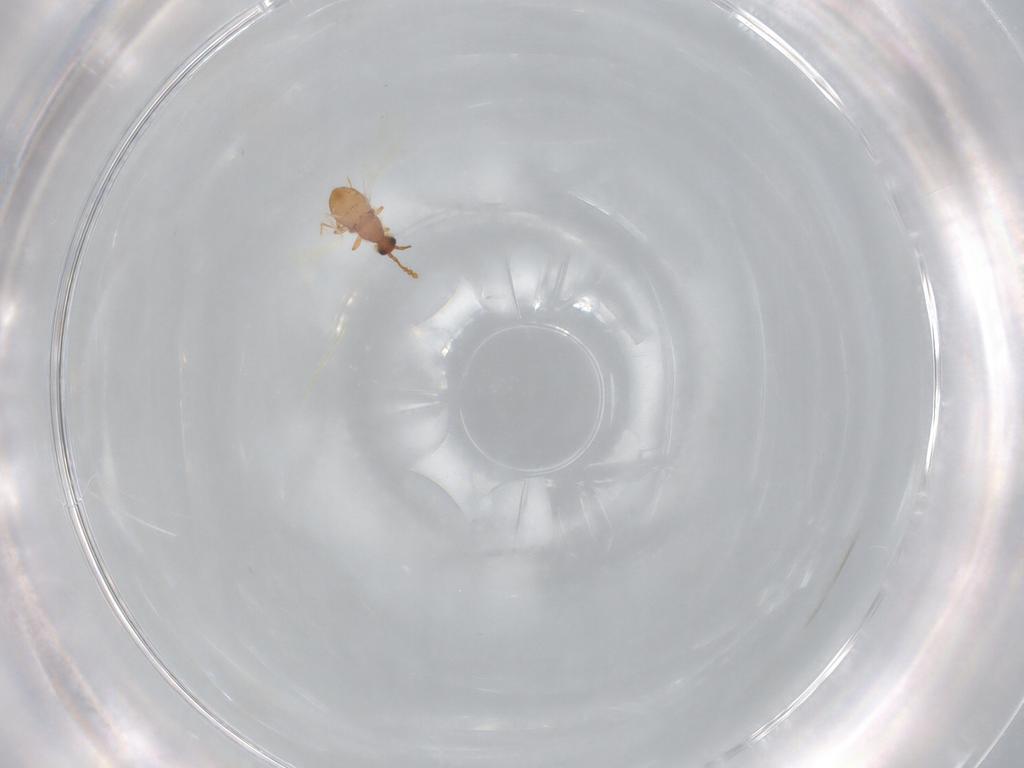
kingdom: Animalia
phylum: Arthropoda
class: Insecta
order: Coleoptera
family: Staphylinidae
